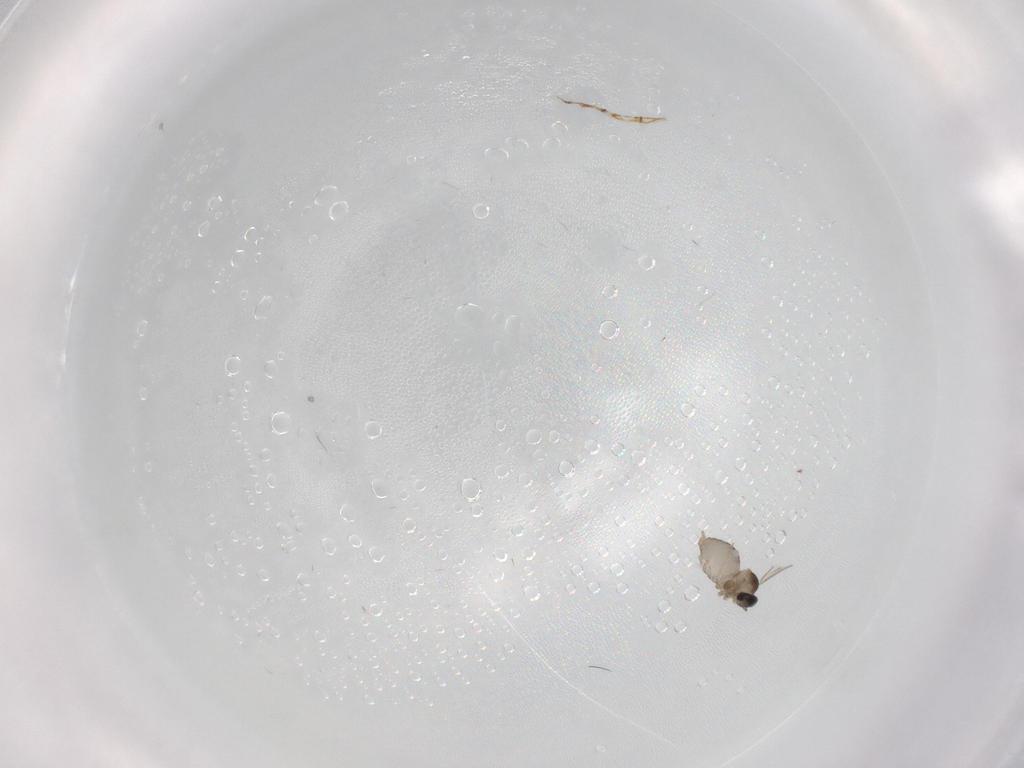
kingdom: Animalia
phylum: Arthropoda
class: Insecta
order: Diptera
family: Cecidomyiidae
